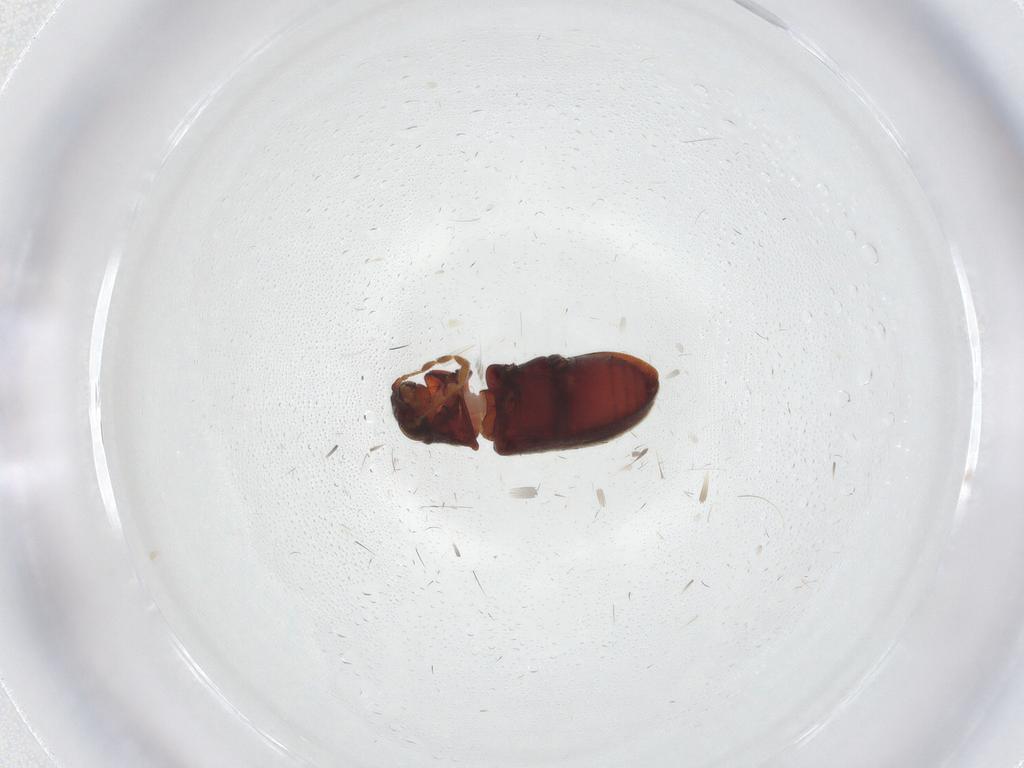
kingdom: Animalia
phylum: Arthropoda
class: Insecta
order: Coleoptera
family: Anobiidae
